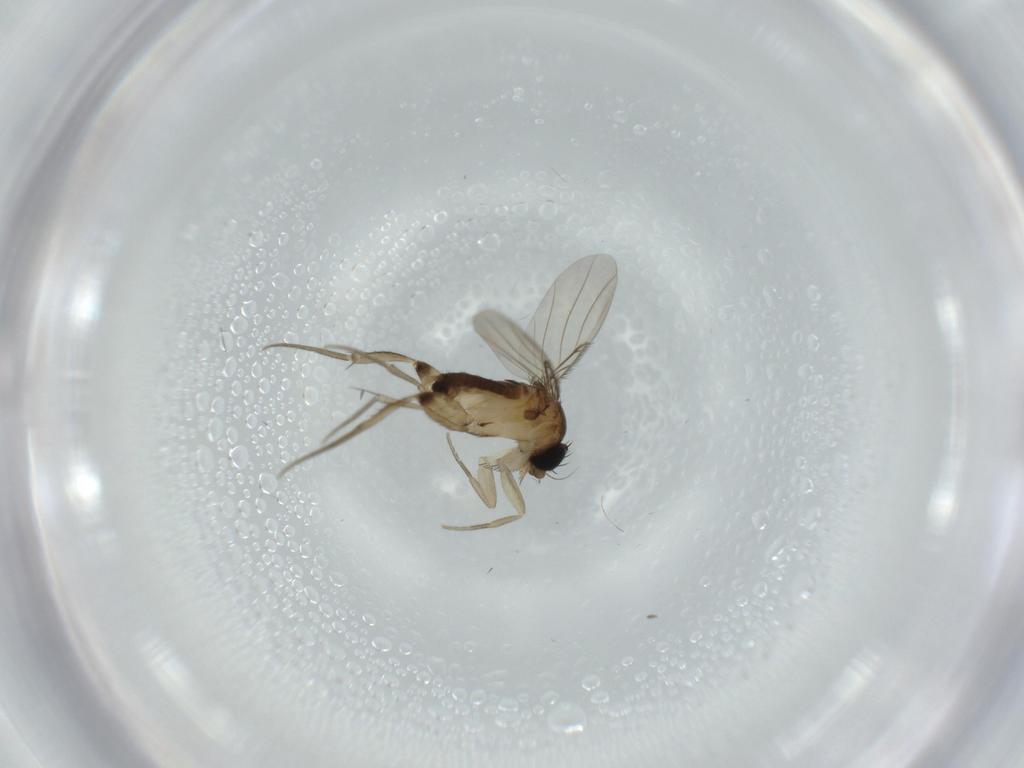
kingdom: Animalia
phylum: Arthropoda
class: Insecta
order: Diptera
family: Phoridae
